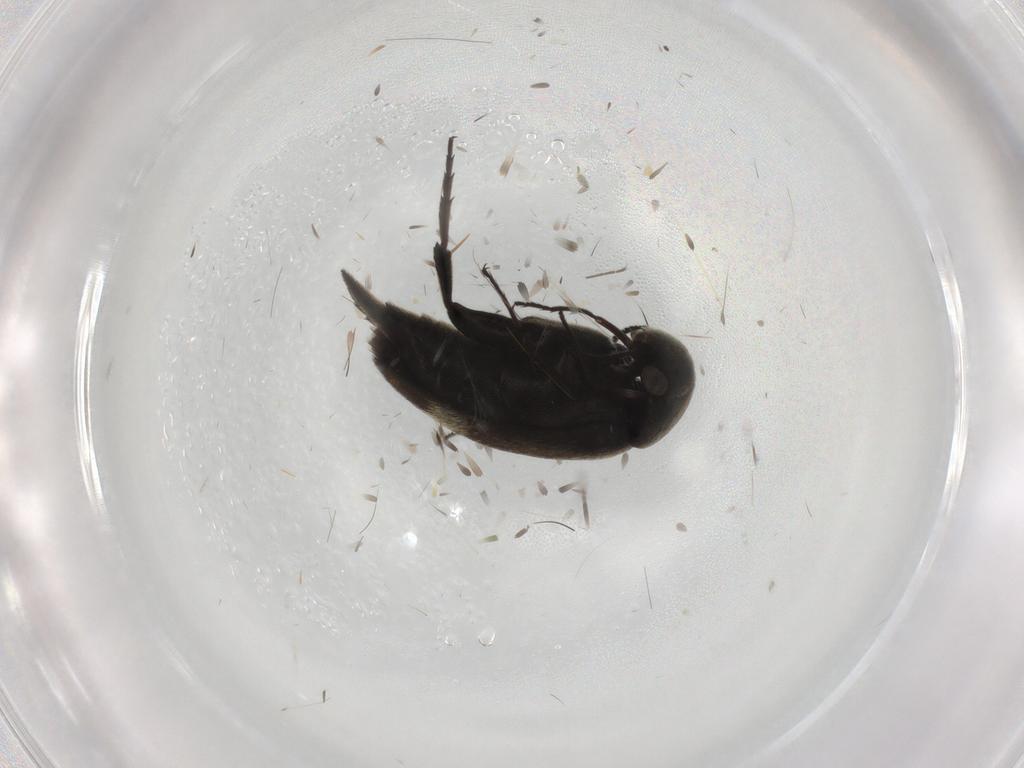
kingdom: Animalia
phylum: Arthropoda
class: Insecta
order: Coleoptera
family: Mordellidae
